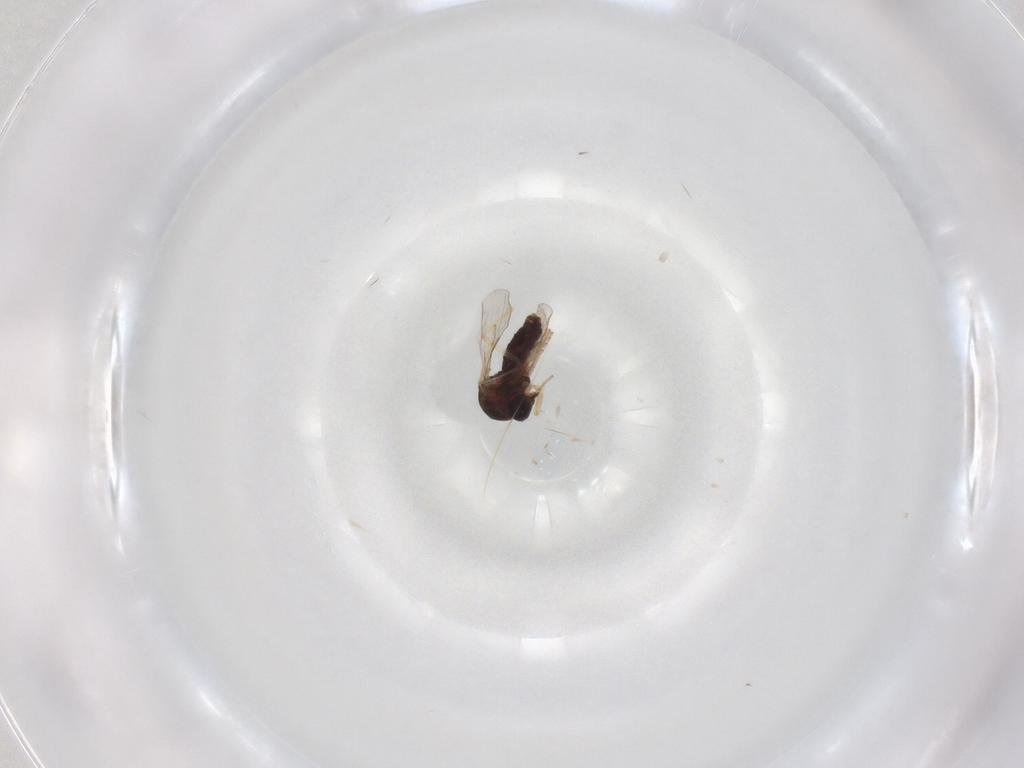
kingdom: Animalia
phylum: Arthropoda
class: Insecta
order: Diptera
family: Ceratopogonidae
